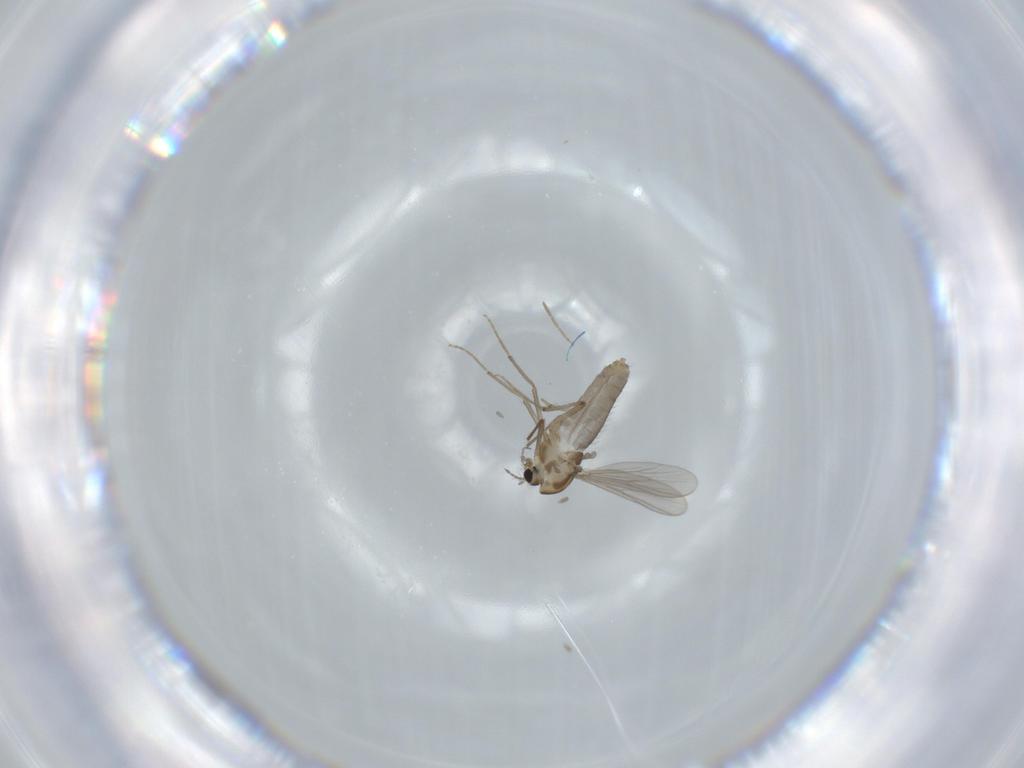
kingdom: Animalia
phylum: Arthropoda
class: Insecta
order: Diptera
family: Chironomidae
